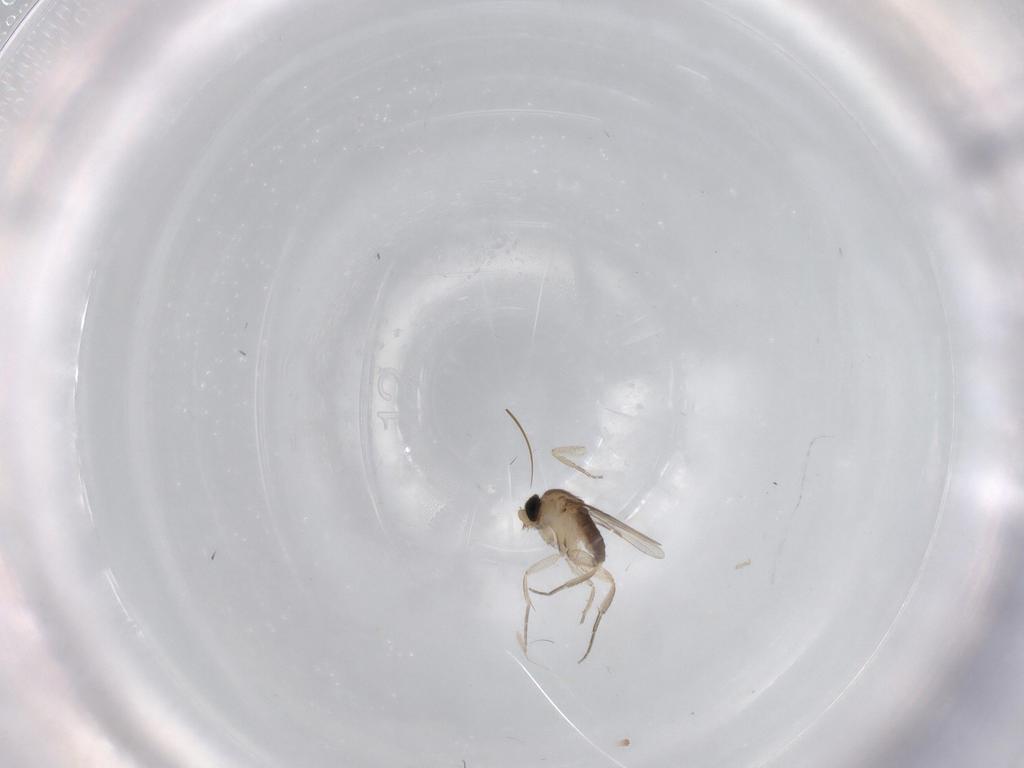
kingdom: Animalia
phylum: Arthropoda
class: Insecta
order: Diptera
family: Phoridae
